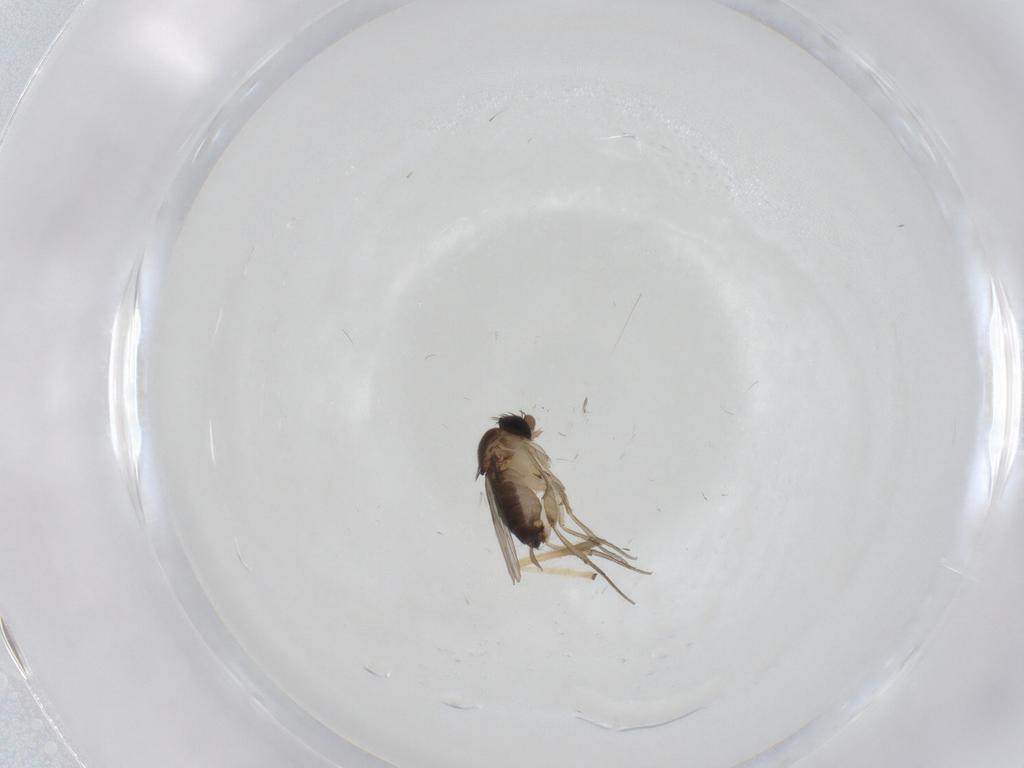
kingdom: Animalia
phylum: Arthropoda
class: Insecta
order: Diptera
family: Chironomidae
